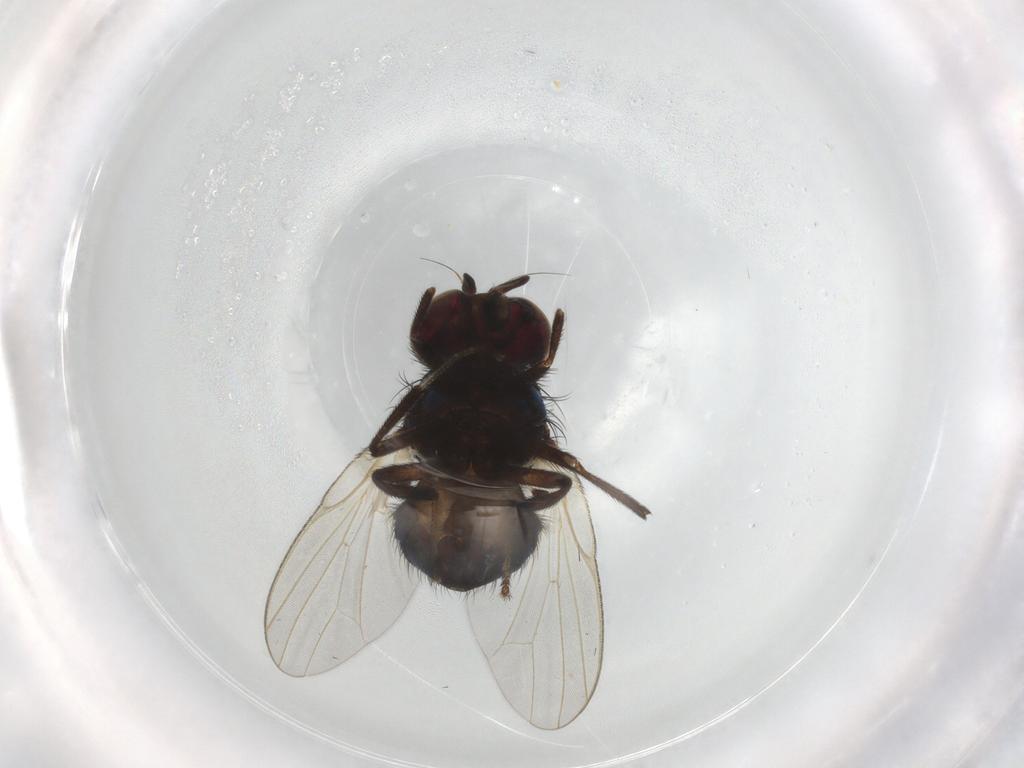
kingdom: Animalia
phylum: Arthropoda
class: Insecta
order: Diptera
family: Lonchaeidae
